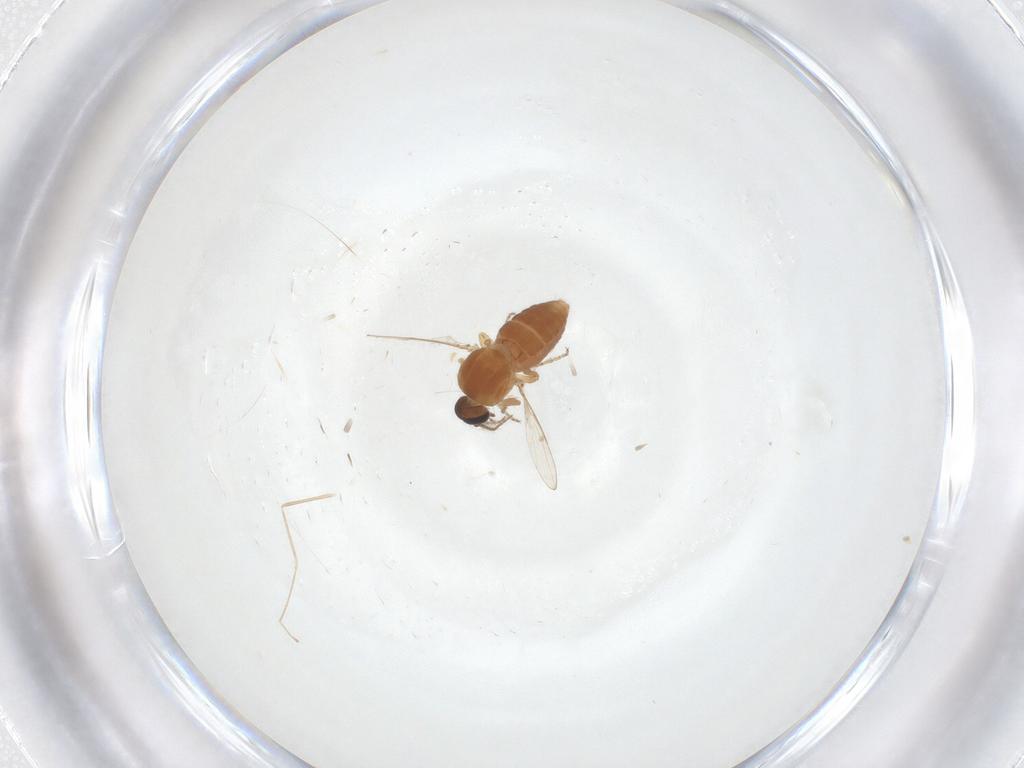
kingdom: Animalia
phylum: Arthropoda
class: Insecta
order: Diptera
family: Ceratopogonidae
